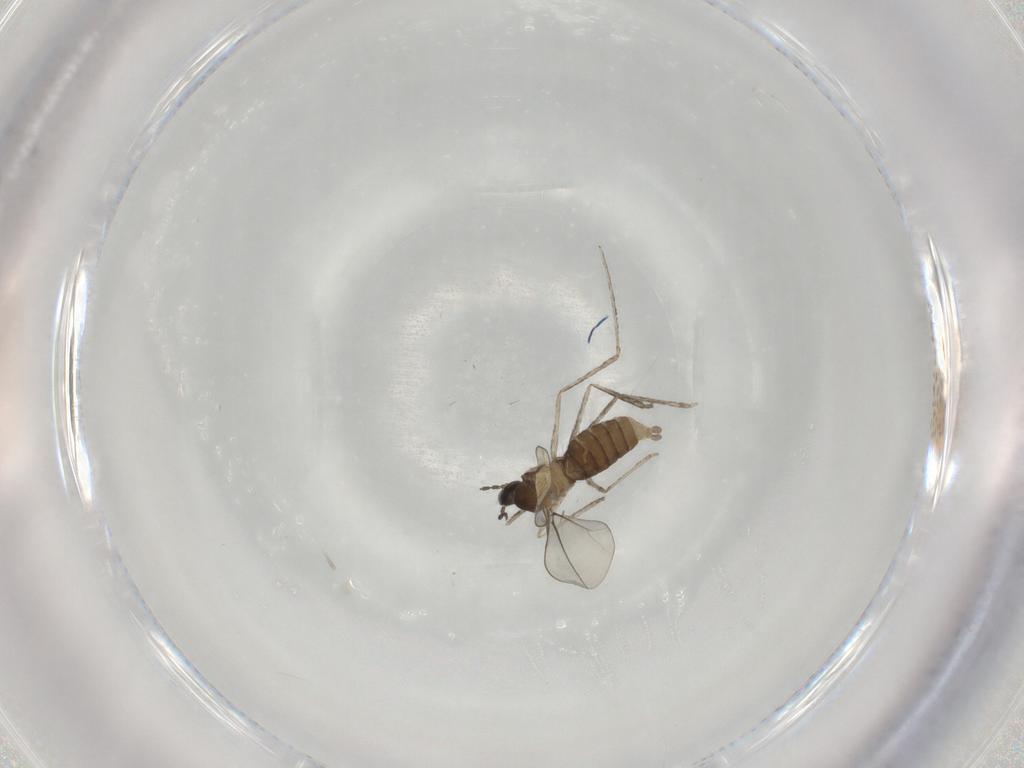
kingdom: Animalia
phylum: Arthropoda
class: Insecta
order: Diptera
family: Cecidomyiidae
